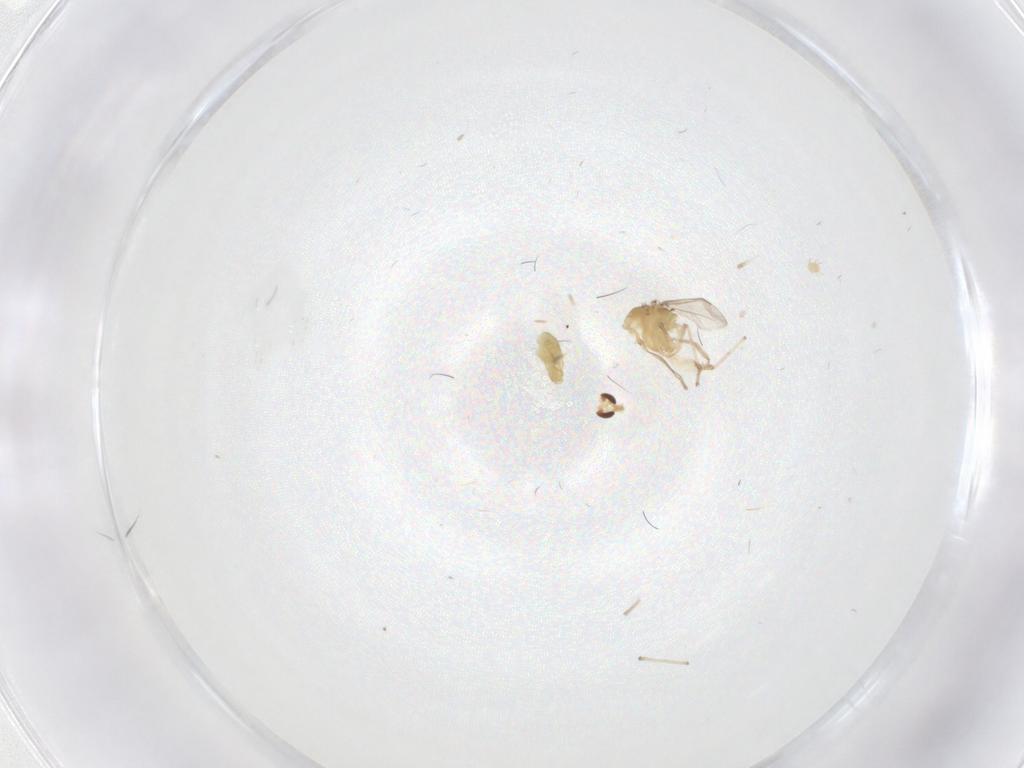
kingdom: Animalia
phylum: Arthropoda
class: Insecta
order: Diptera
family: Chironomidae
